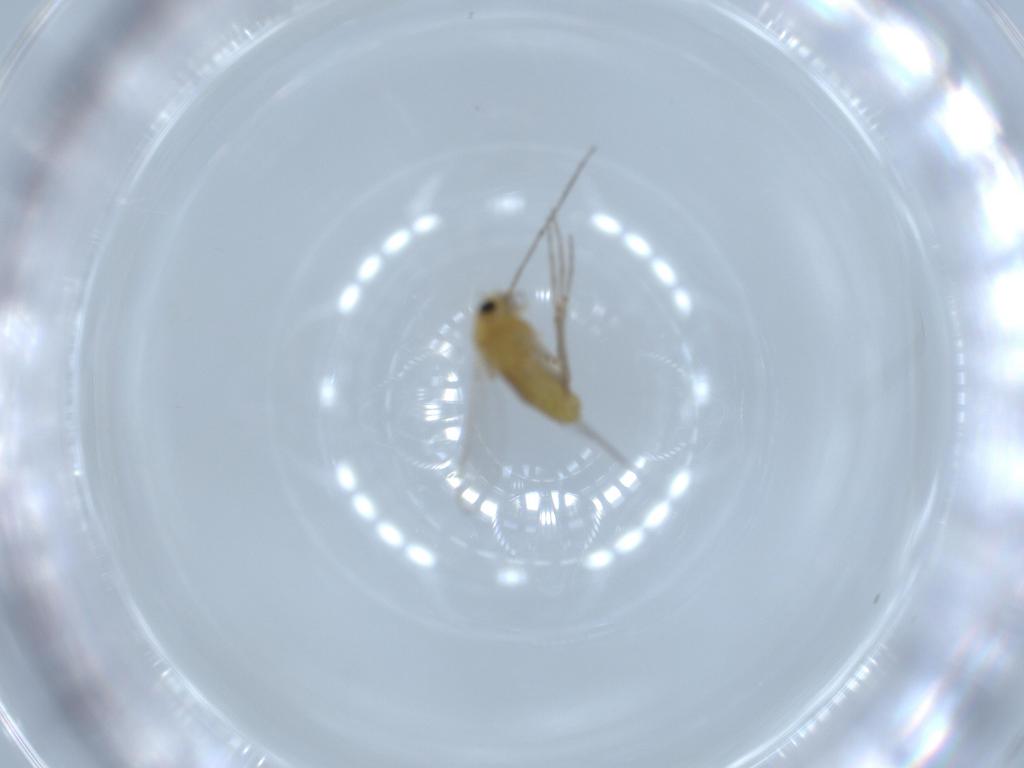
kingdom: Animalia
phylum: Arthropoda
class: Insecta
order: Diptera
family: Chironomidae
